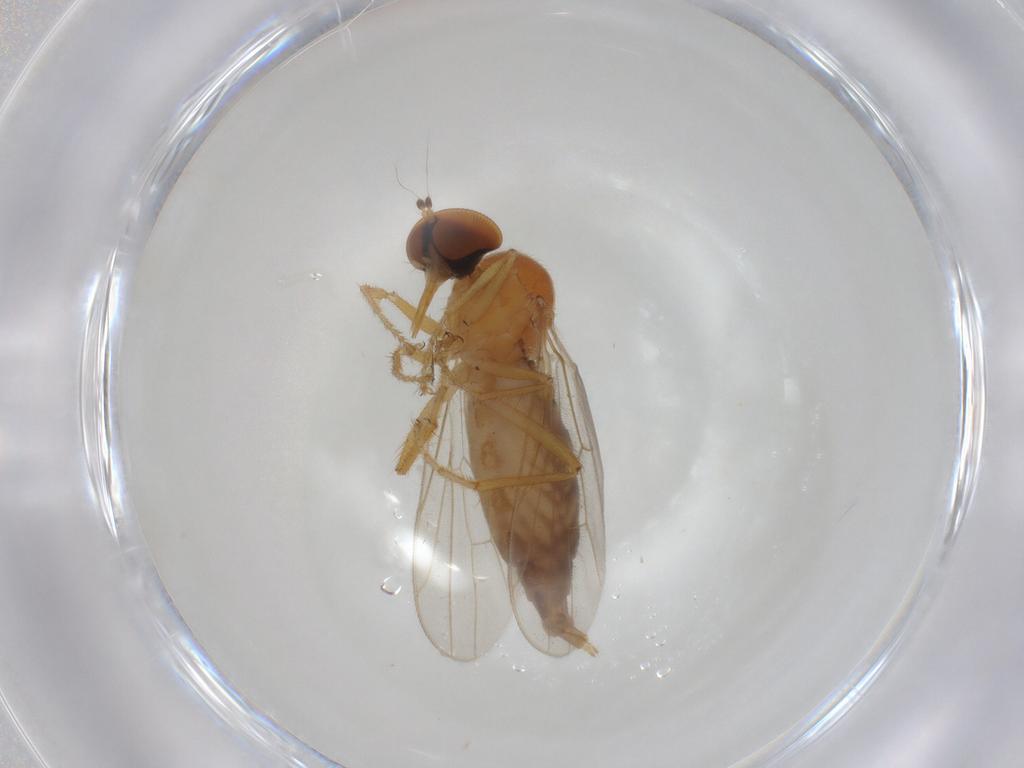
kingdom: Animalia
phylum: Arthropoda
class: Insecta
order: Diptera
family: Hybotidae
